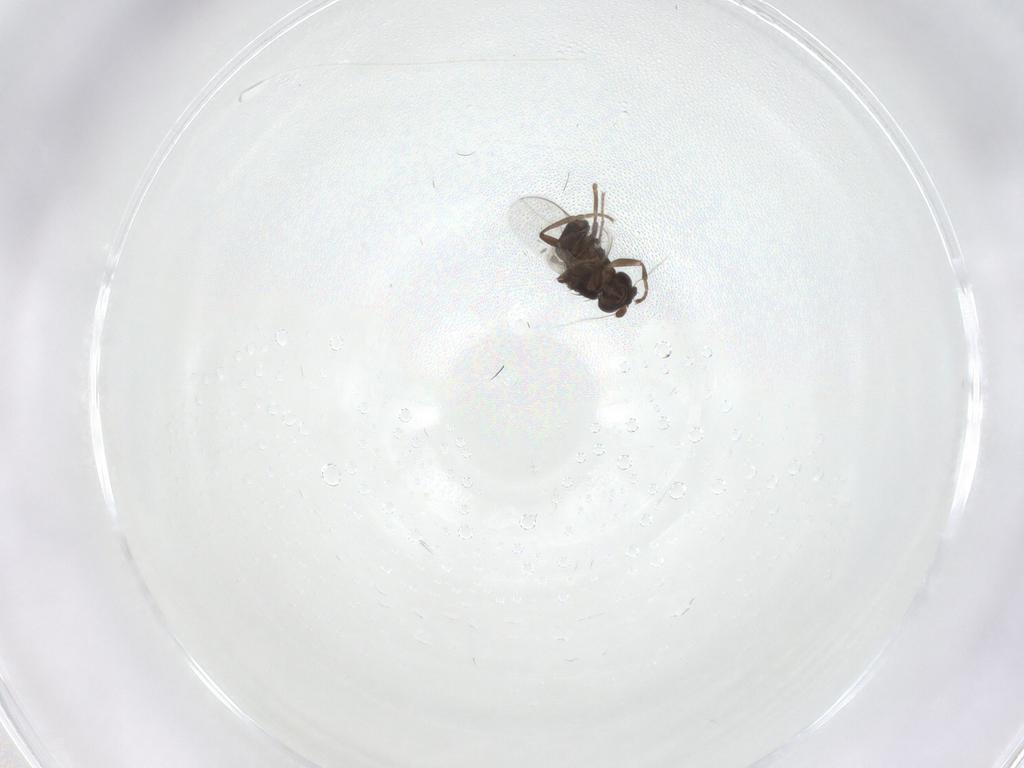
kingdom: Animalia
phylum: Arthropoda
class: Insecta
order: Diptera
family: Sphaeroceridae
